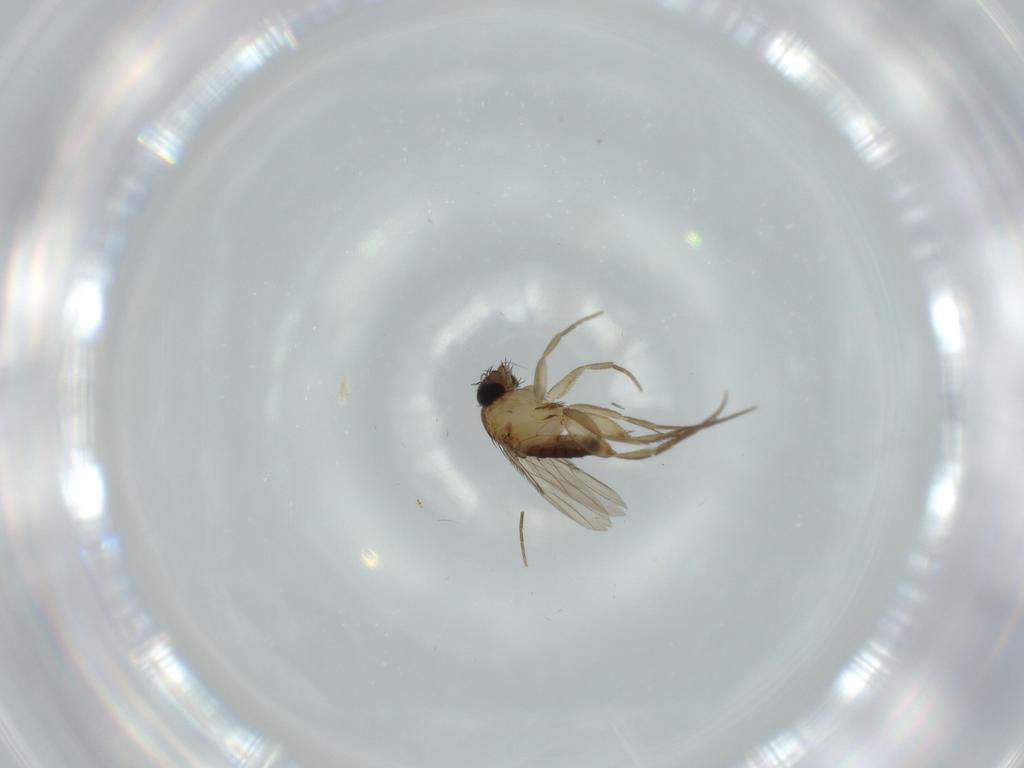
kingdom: Animalia
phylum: Arthropoda
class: Insecta
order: Diptera
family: Phoridae
